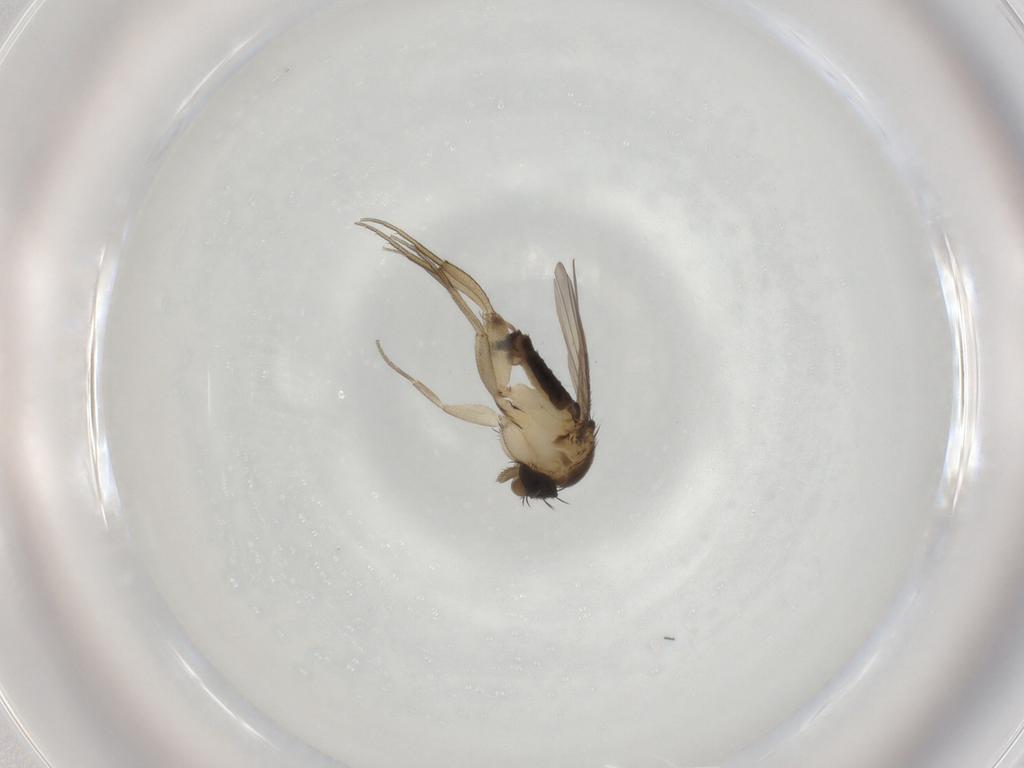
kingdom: Animalia
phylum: Arthropoda
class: Insecta
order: Diptera
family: Phoridae
